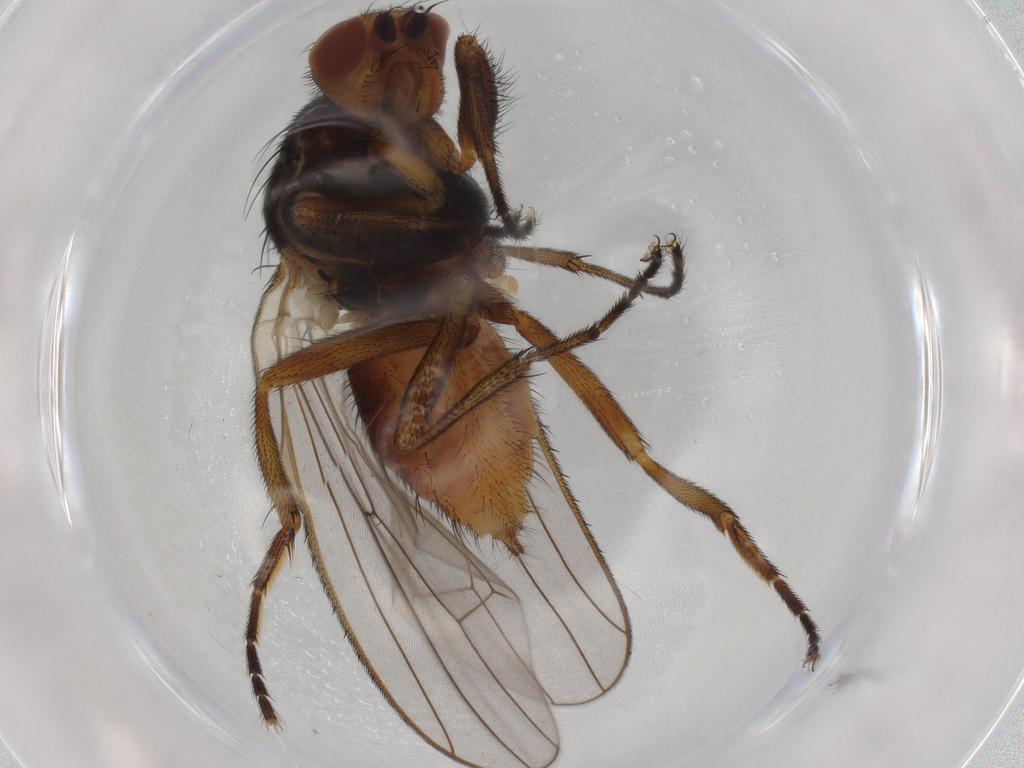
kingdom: Animalia
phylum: Arthropoda
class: Insecta
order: Diptera
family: Heleomyzidae
